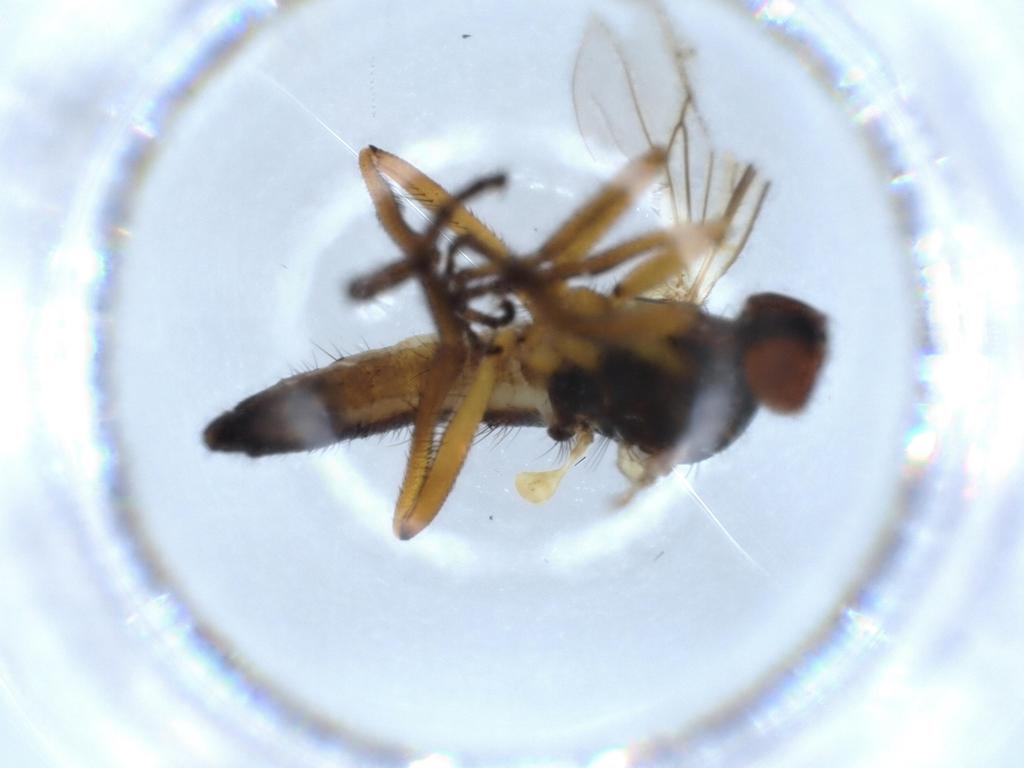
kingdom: Animalia
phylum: Arthropoda
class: Insecta
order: Diptera
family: Empididae
